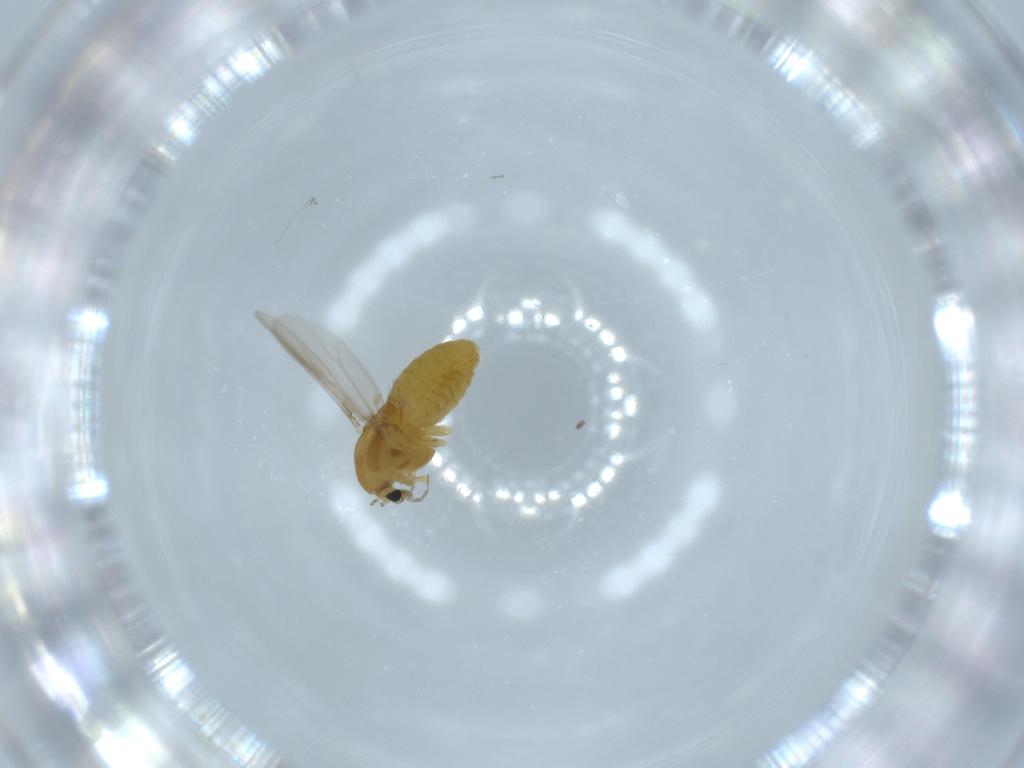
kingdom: Animalia
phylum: Arthropoda
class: Insecta
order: Diptera
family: Chironomidae
